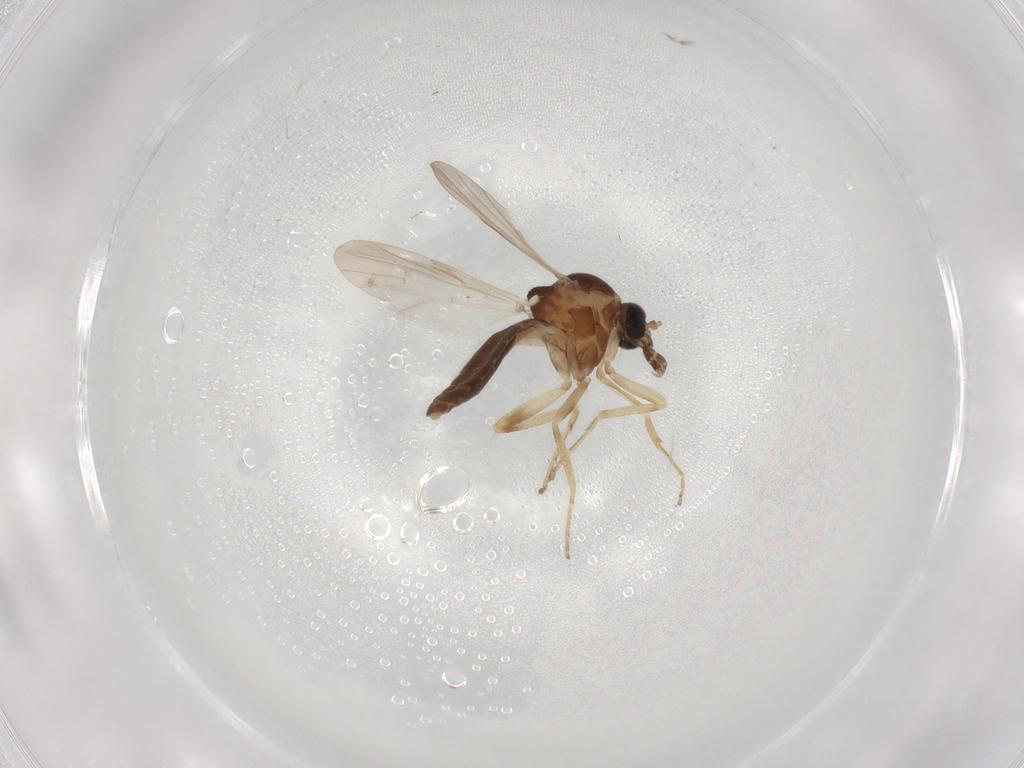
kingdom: Animalia
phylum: Arthropoda
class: Insecta
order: Diptera
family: Ceratopogonidae
